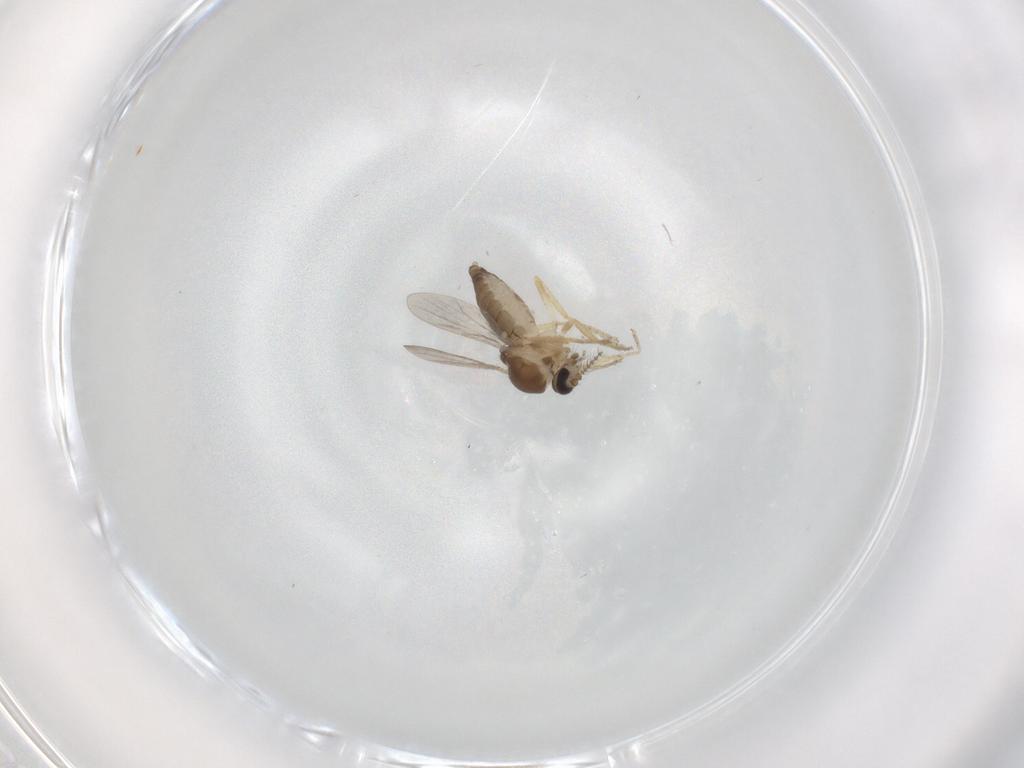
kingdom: Animalia
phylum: Arthropoda
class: Insecta
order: Diptera
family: Ceratopogonidae
